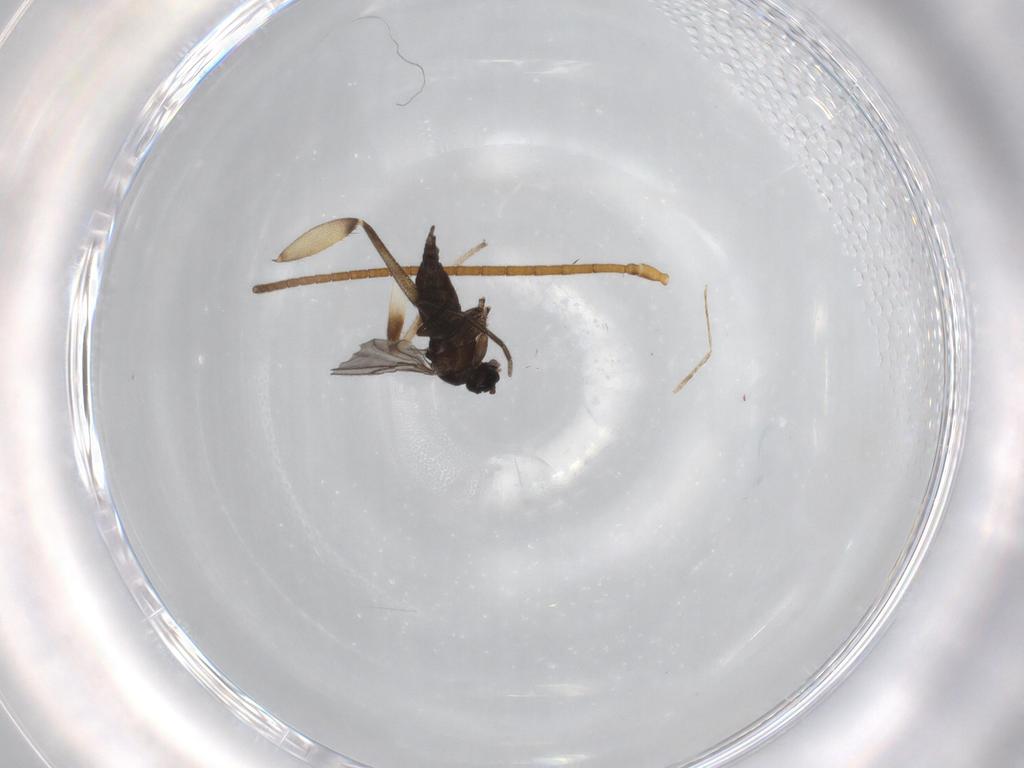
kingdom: Animalia
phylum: Arthropoda
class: Insecta
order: Diptera
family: Sciaridae
